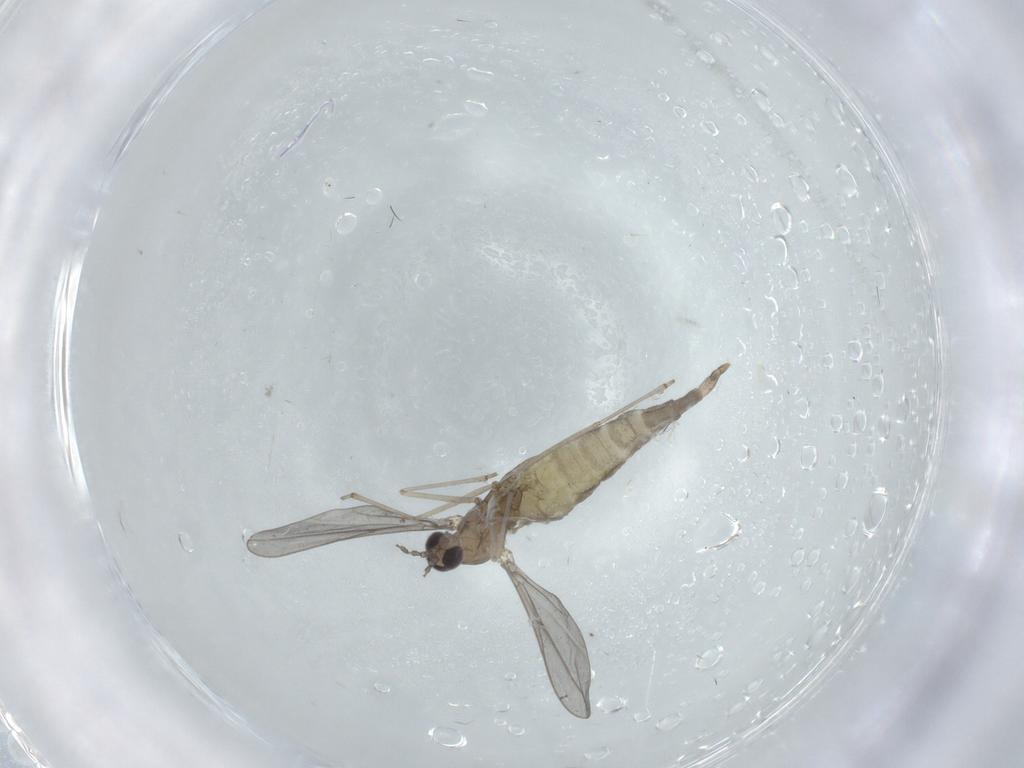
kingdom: Animalia
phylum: Arthropoda
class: Insecta
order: Diptera
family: Chironomidae
